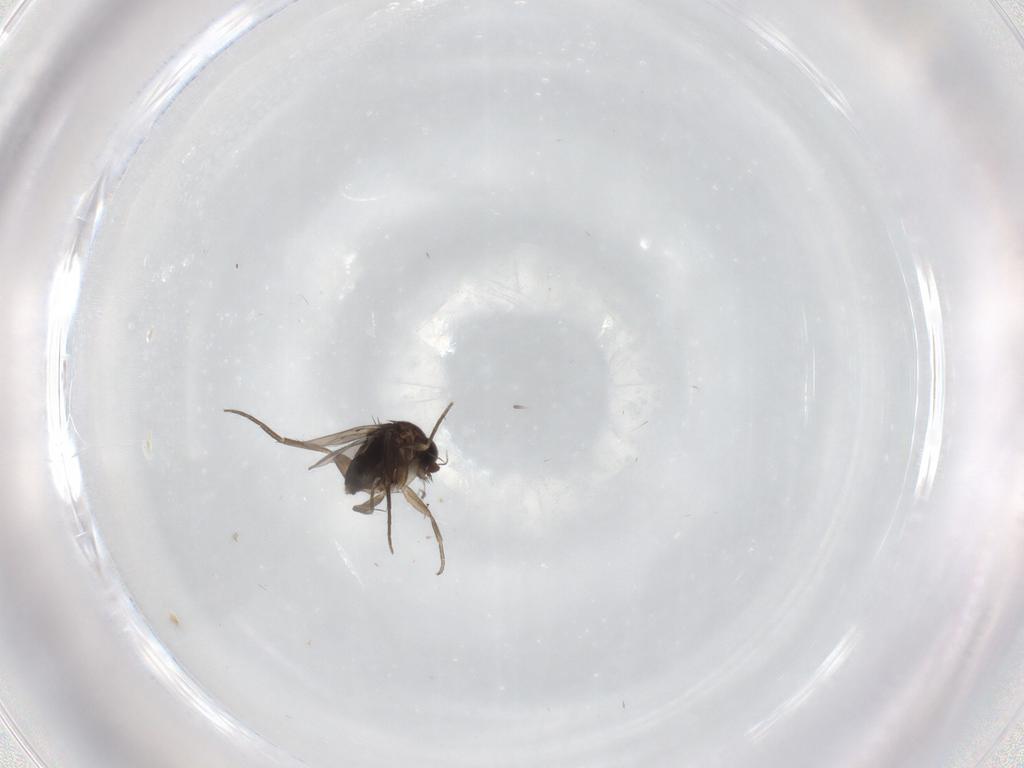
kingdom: Animalia
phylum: Arthropoda
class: Insecta
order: Diptera
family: Phoridae
